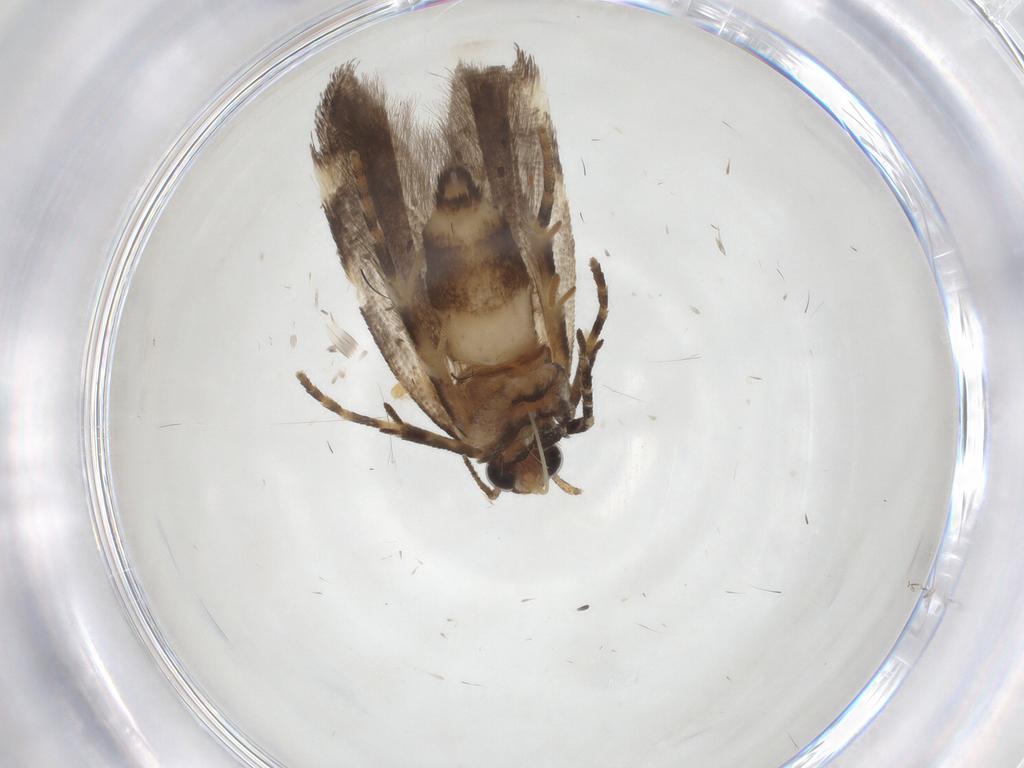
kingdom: Animalia
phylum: Arthropoda
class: Insecta
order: Lepidoptera
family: Gelechiidae
